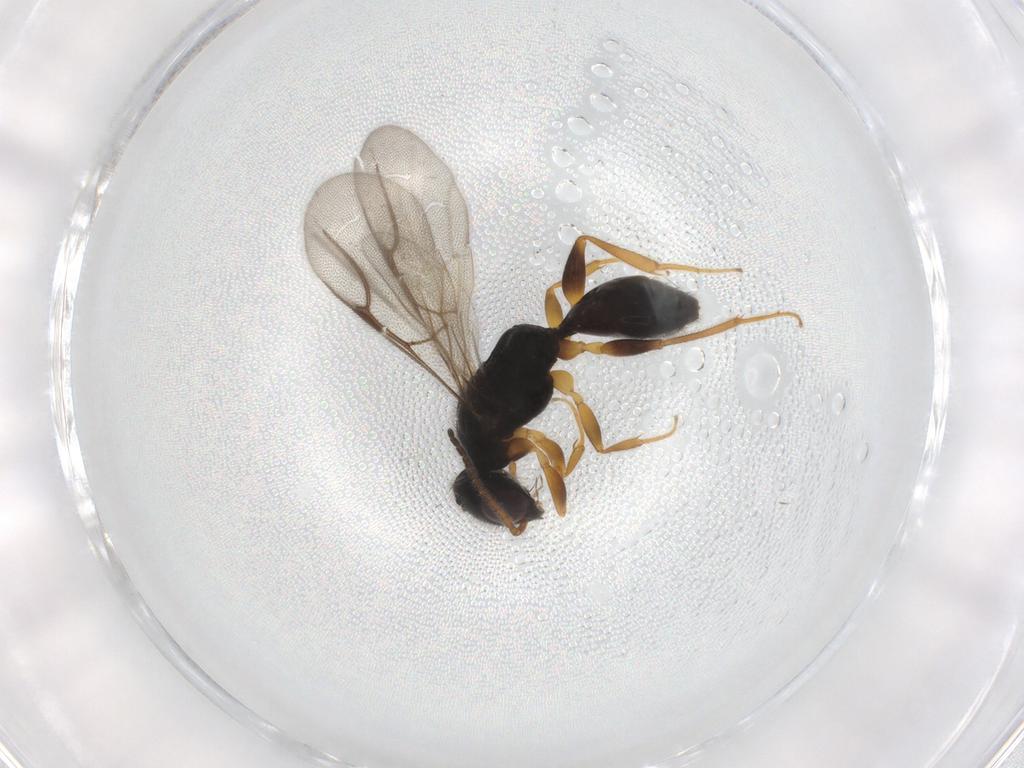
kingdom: Animalia
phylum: Arthropoda
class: Insecta
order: Hymenoptera
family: Bethylidae
